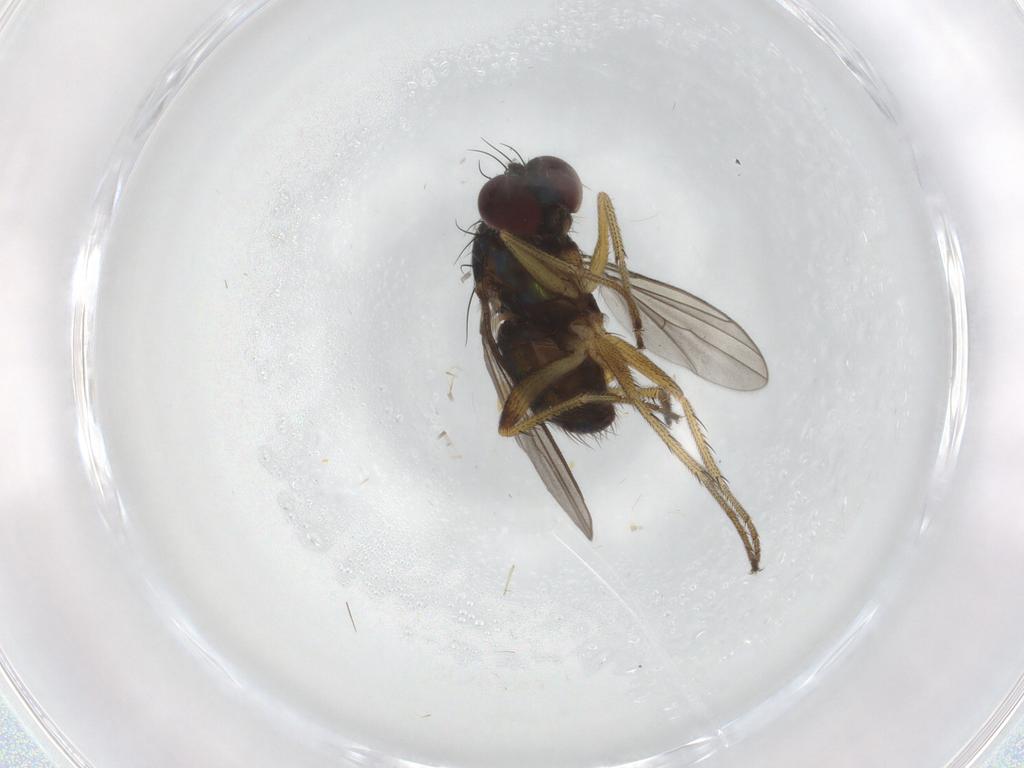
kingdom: Animalia
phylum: Arthropoda
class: Insecta
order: Diptera
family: Dolichopodidae
